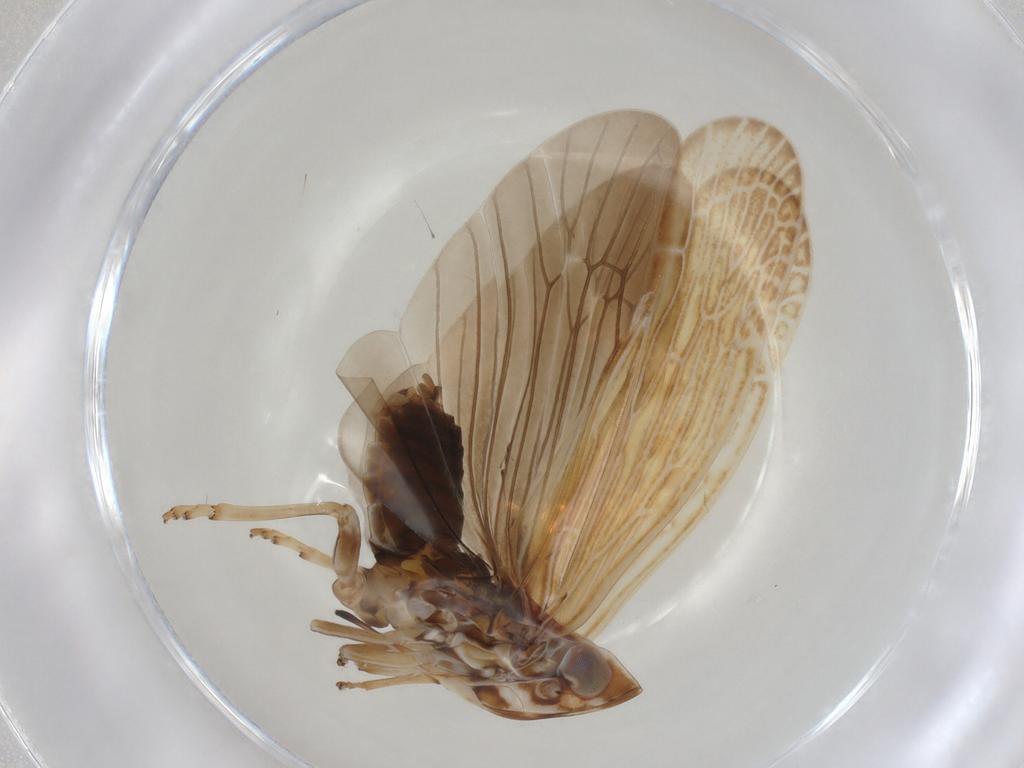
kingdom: Animalia
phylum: Arthropoda
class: Insecta
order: Hemiptera
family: Achilidae
